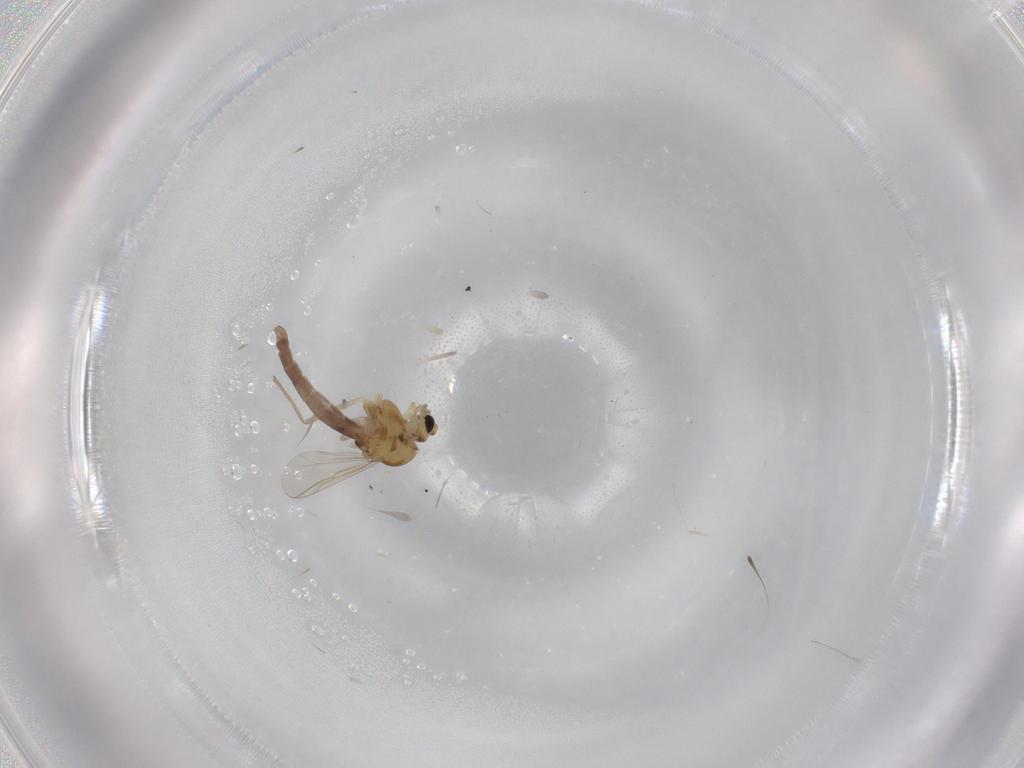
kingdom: Animalia
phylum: Arthropoda
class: Insecta
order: Diptera
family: Chironomidae
